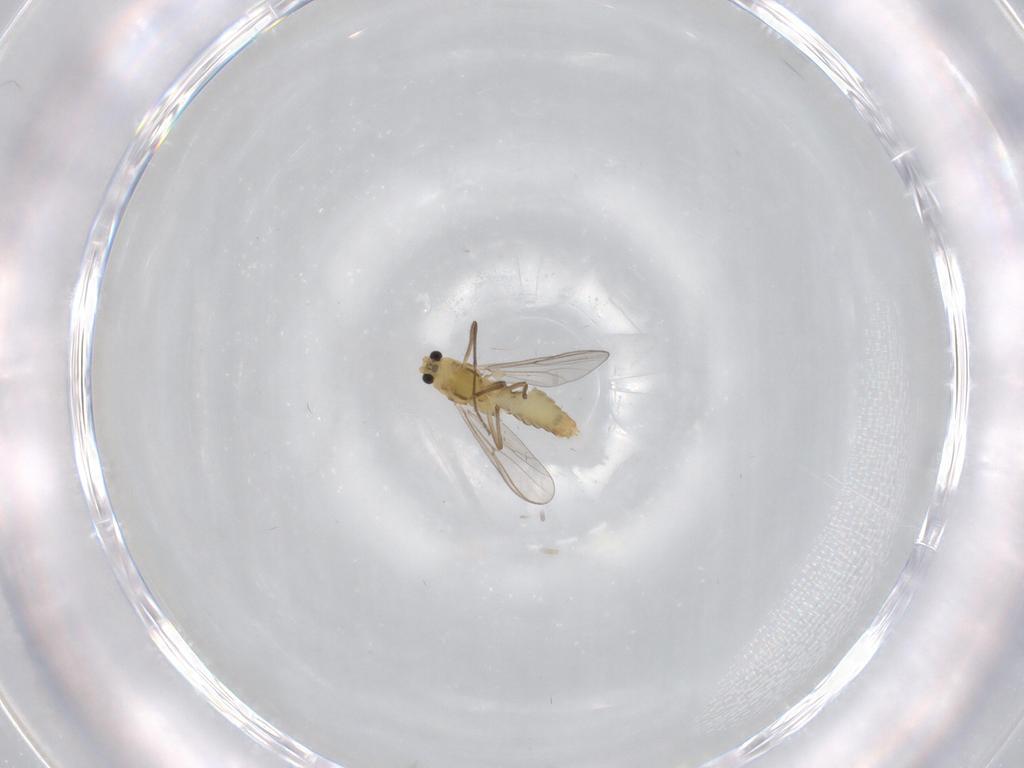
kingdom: Animalia
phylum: Arthropoda
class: Insecta
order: Diptera
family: Chironomidae
